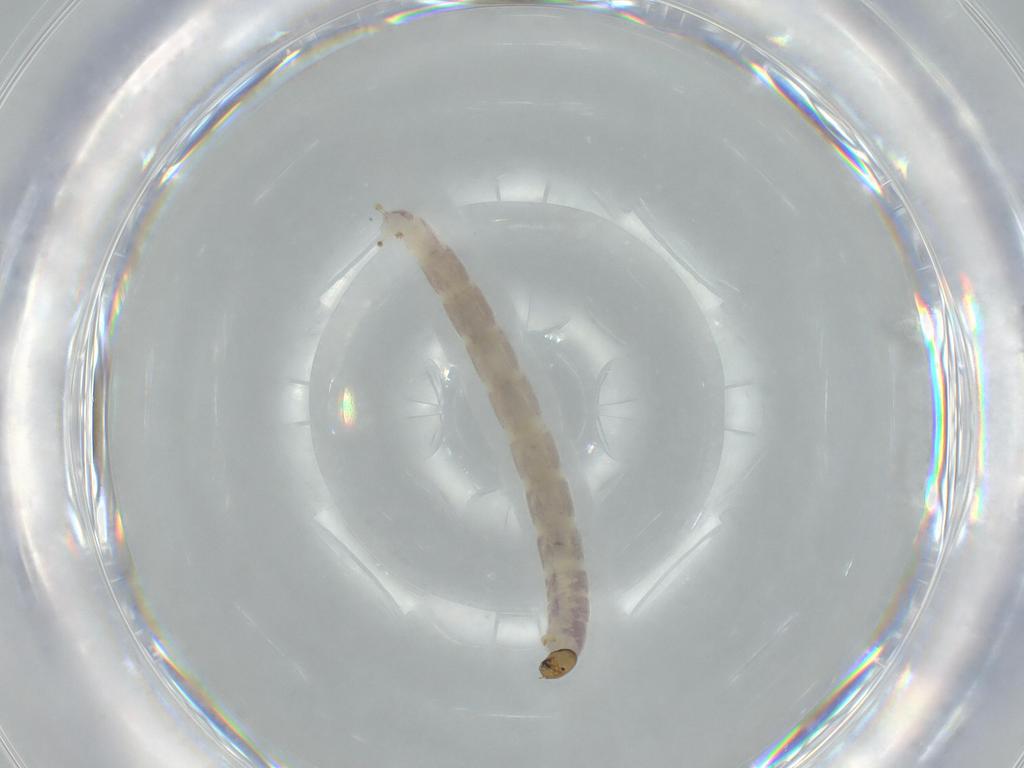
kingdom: Animalia
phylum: Arthropoda
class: Insecta
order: Diptera
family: Chironomidae
